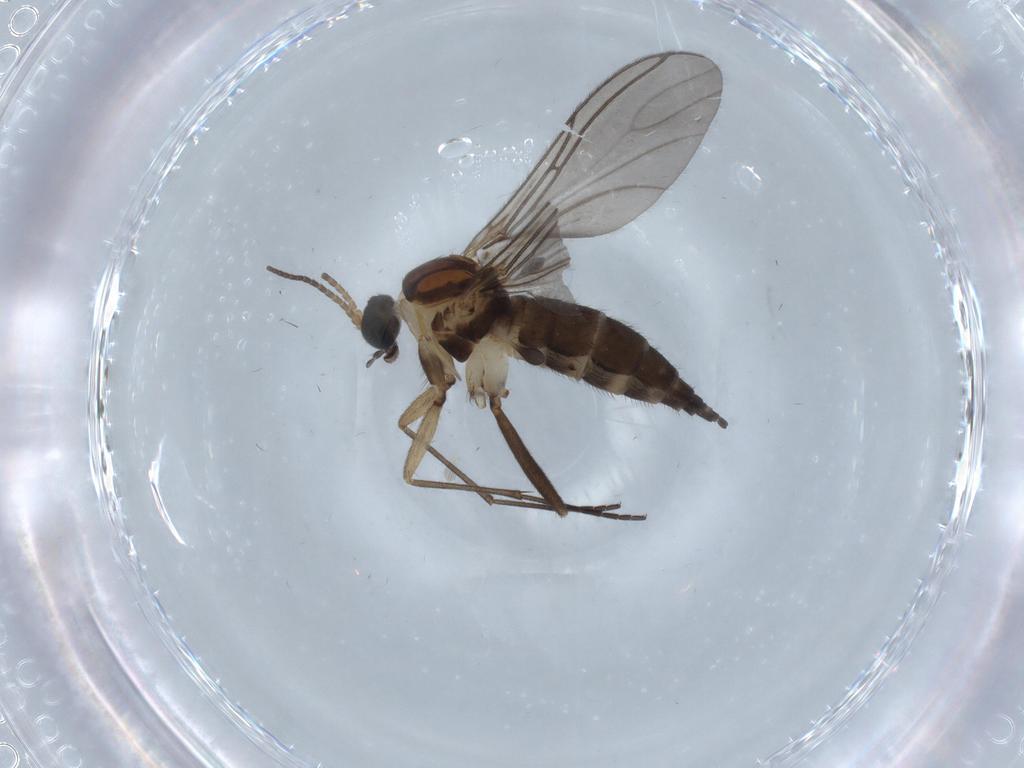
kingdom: Animalia
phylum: Arthropoda
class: Insecta
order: Diptera
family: Sciaridae
